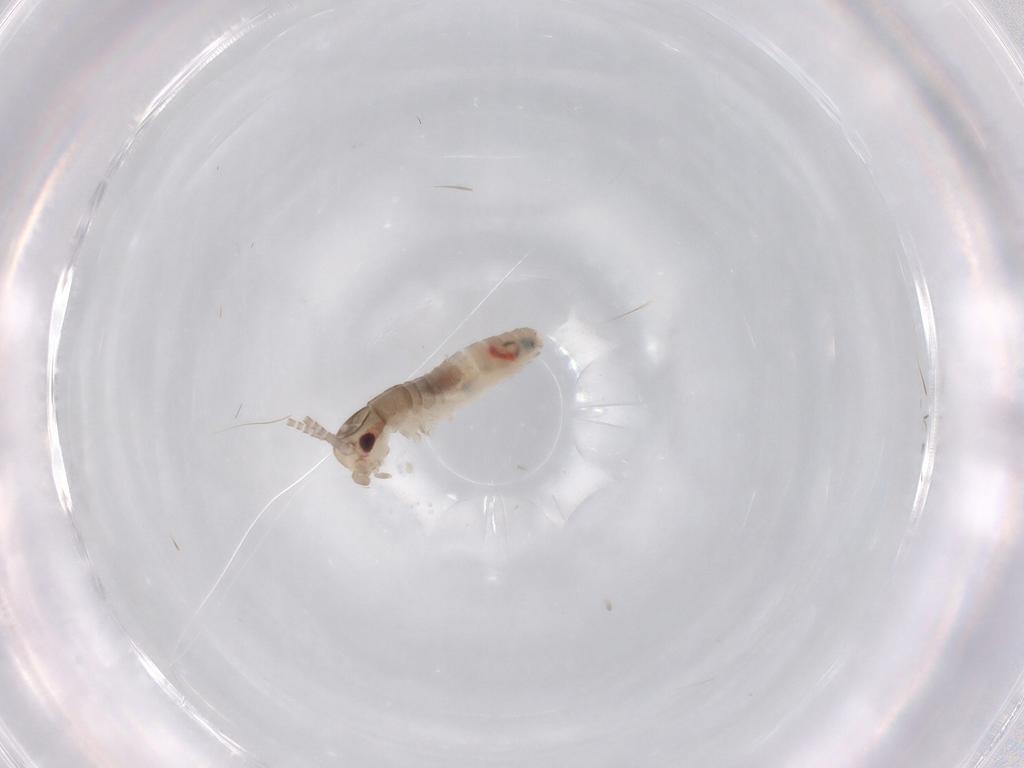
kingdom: Animalia
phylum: Arthropoda
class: Insecta
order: Orthoptera
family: Gryllidae
